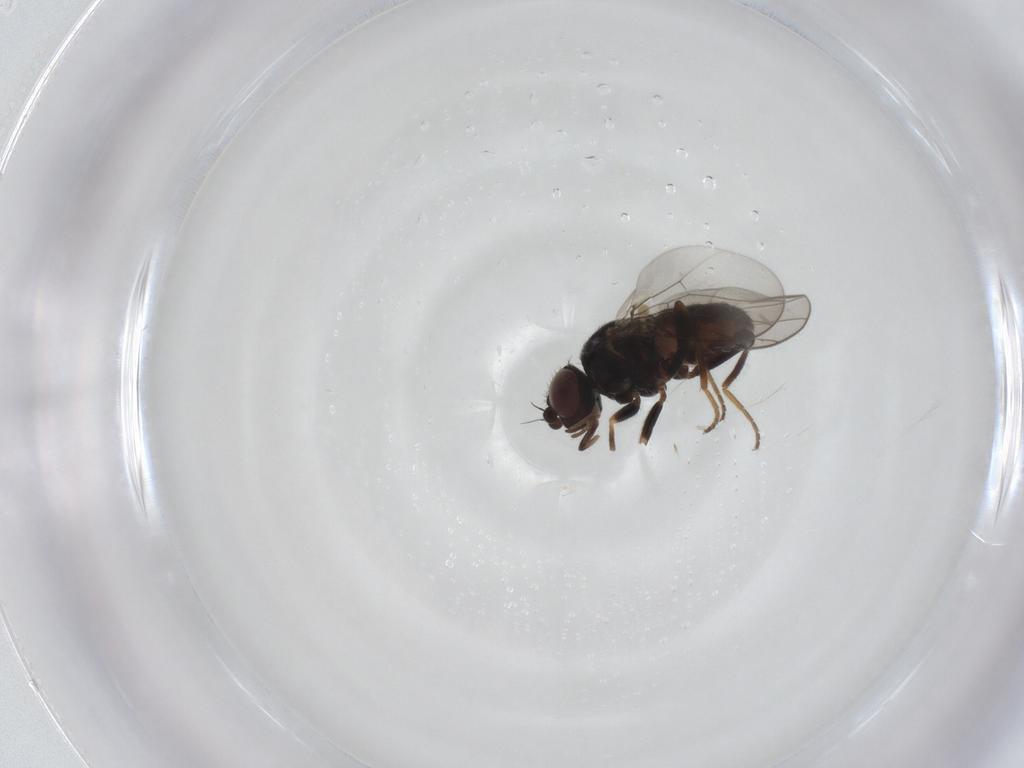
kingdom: Animalia
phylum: Arthropoda
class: Insecta
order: Diptera
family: Chloropidae
